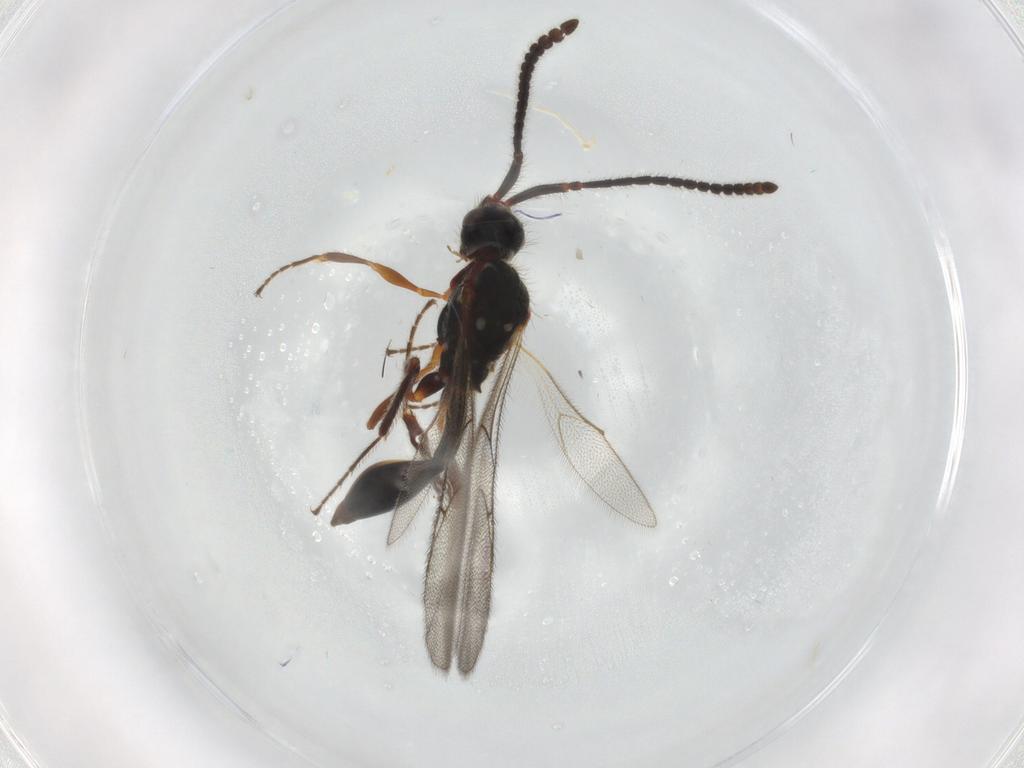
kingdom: Animalia
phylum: Arthropoda
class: Insecta
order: Hymenoptera
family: Diapriidae
